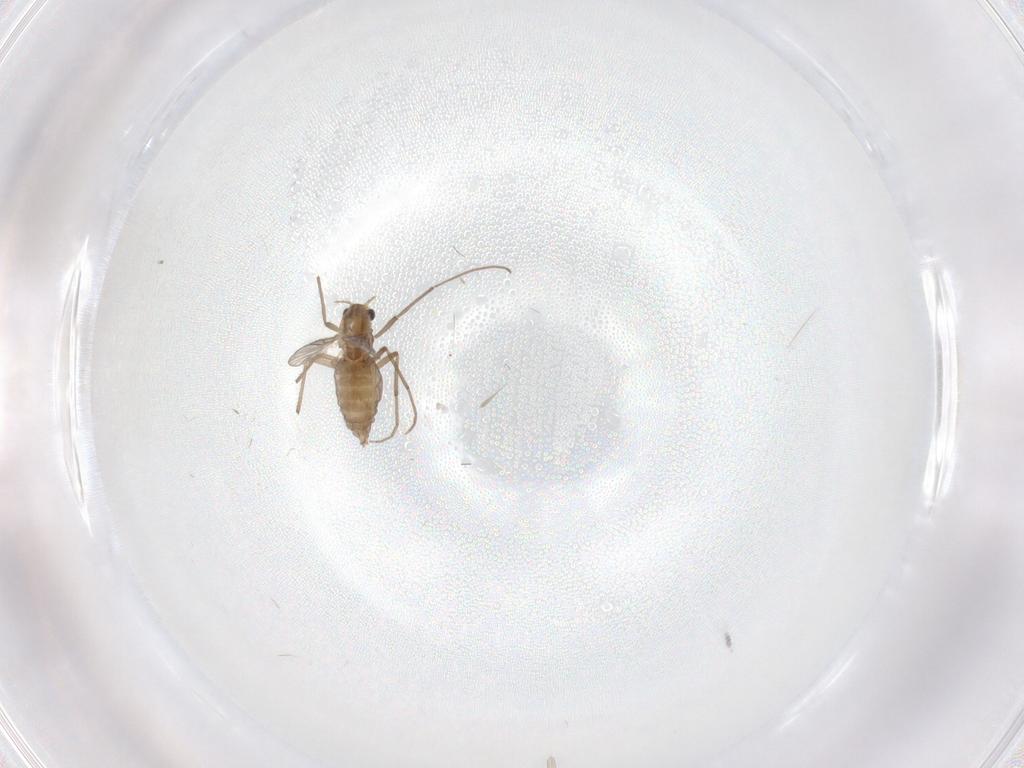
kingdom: Animalia
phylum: Arthropoda
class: Insecta
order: Diptera
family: Chironomidae
